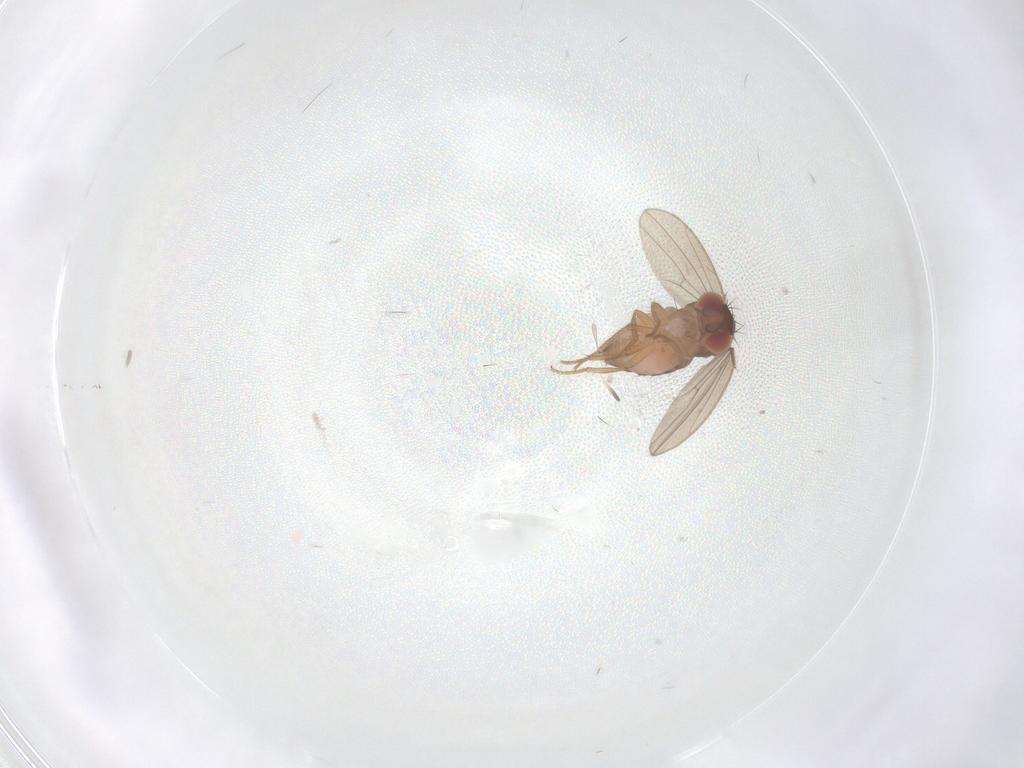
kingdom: Animalia
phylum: Arthropoda
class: Insecta
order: Diptera
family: Drosophilidae
